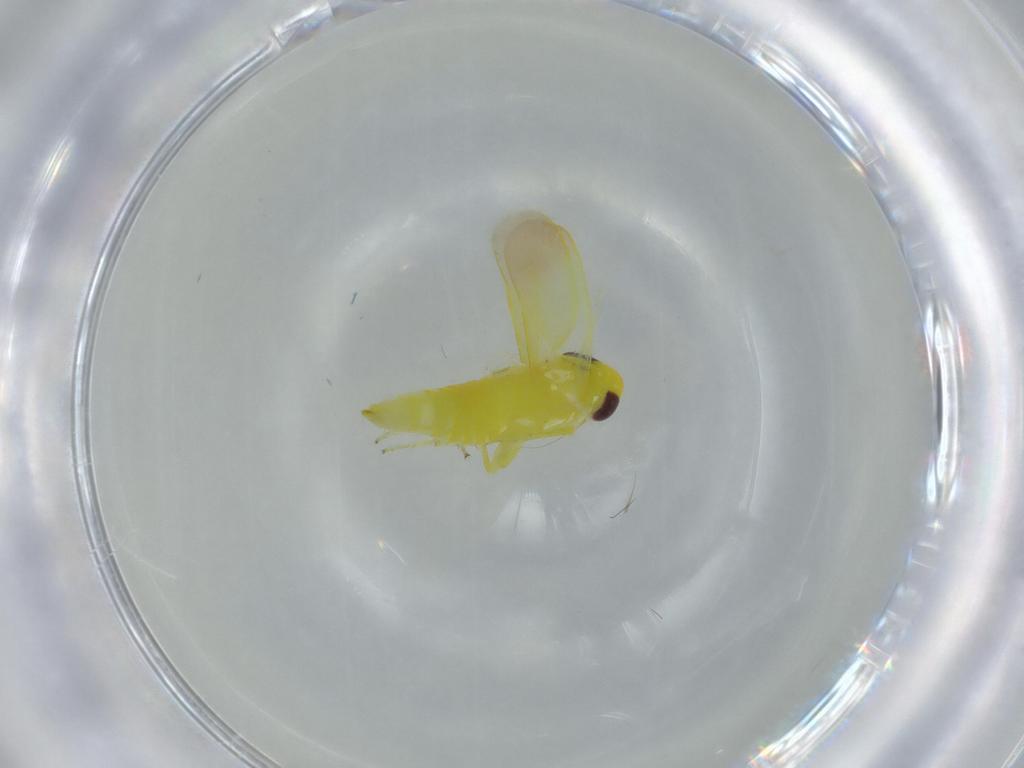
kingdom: Animalia
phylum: Arthropoda
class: Insecta
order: Hemiptera
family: Cicadellidae
